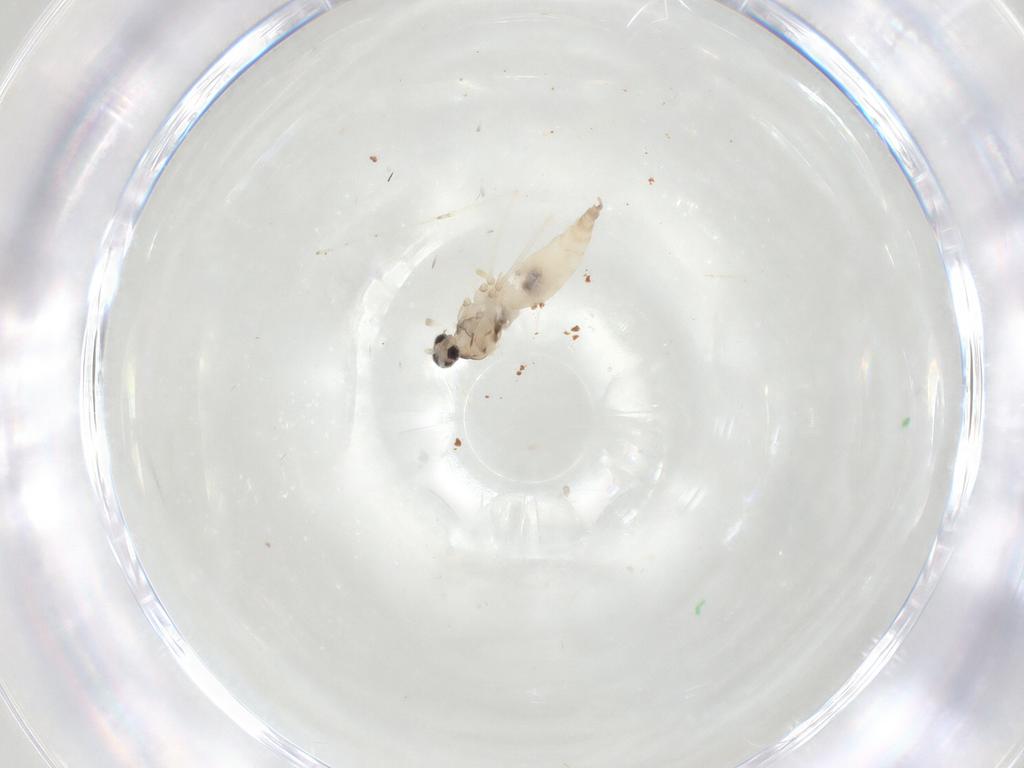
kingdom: Animalia
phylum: Arthropoda
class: Insecta
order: Diptera
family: Cecidomyiidae
